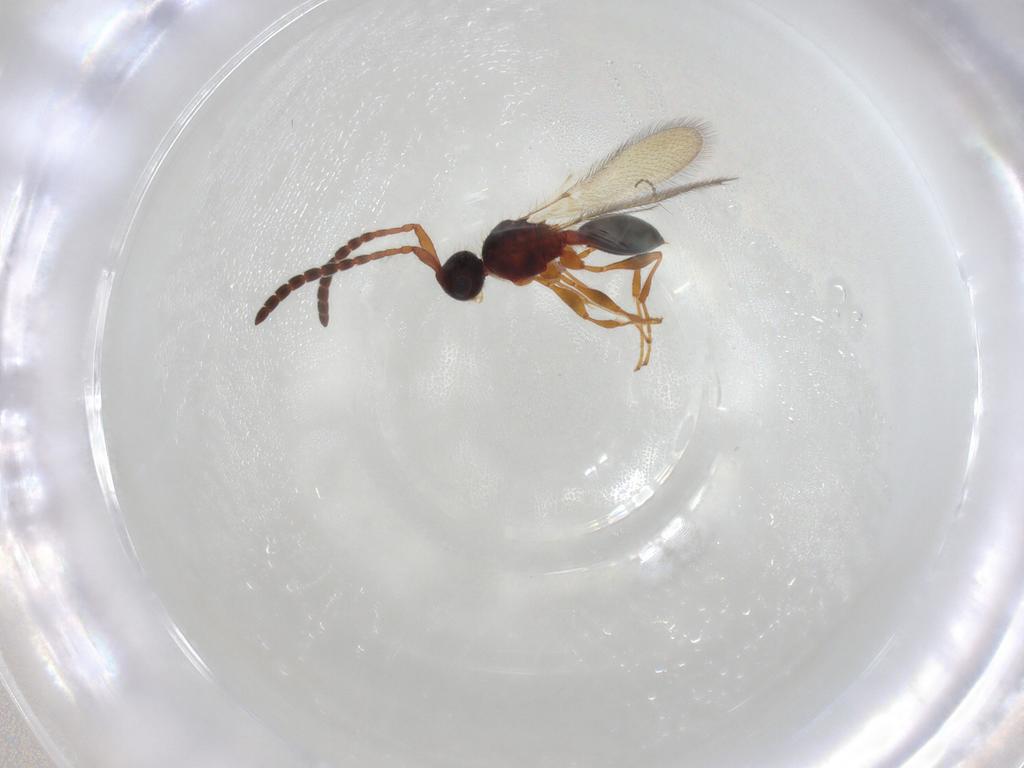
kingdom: Animalia
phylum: Arthropoda
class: Insecta
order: Hymenoptera
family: Diapriidae
